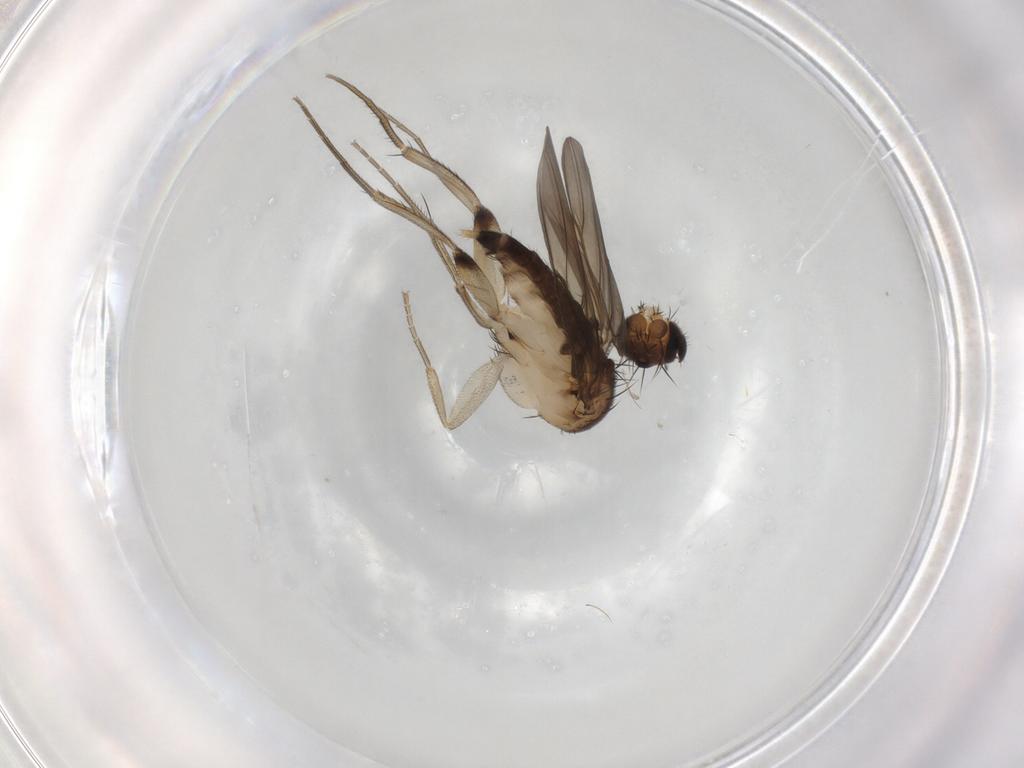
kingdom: Animalia
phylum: Arthropoda
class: Insecta
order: Diptera
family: Phoridae
